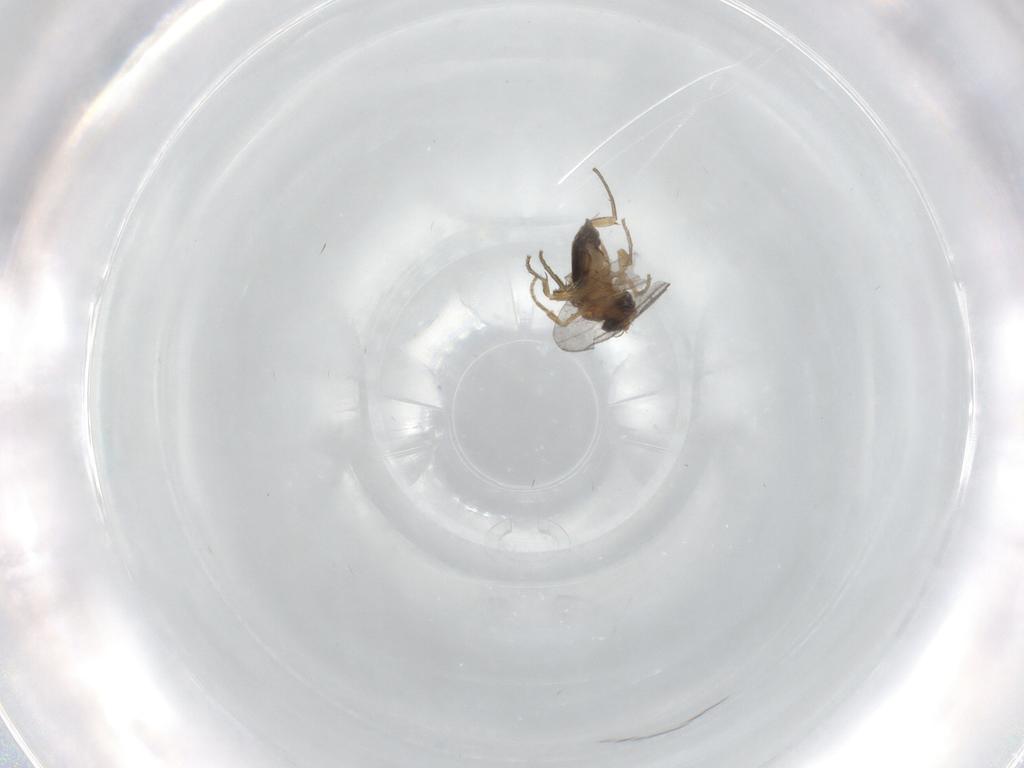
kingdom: Animalia
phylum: Arthropoda
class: Insecta
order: Diptera
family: Phoridae
